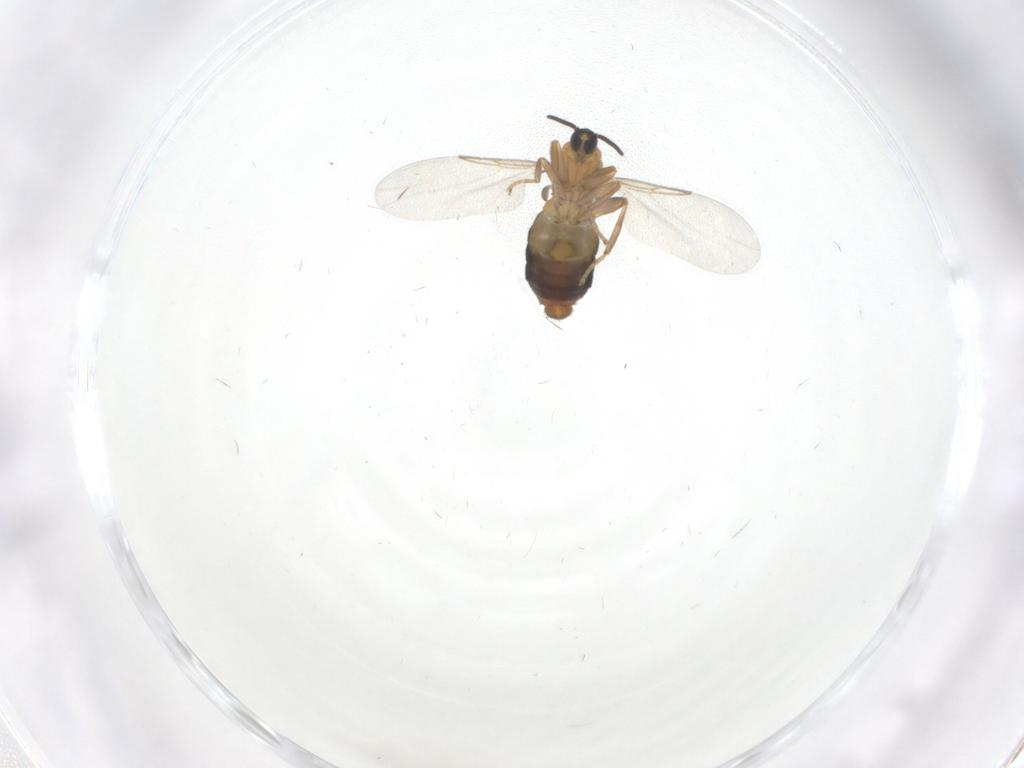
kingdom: Animalia
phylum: Arthropoda
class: Insecta
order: Diptera
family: Scatopsidae
